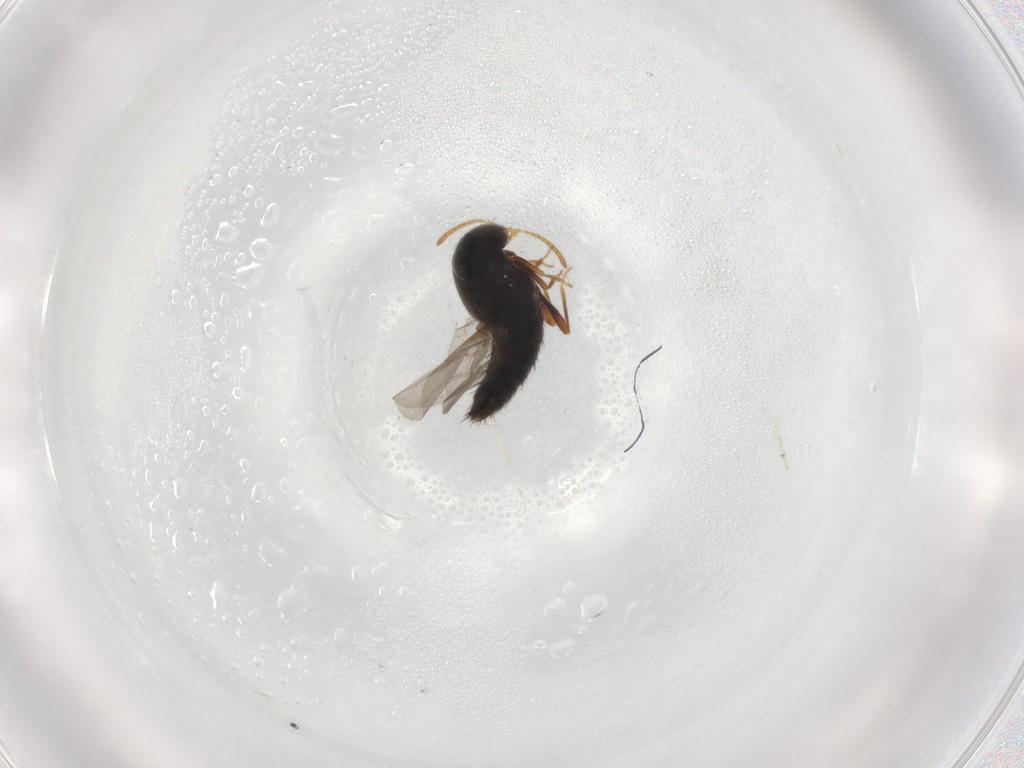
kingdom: Animalia
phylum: Arthropoda
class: Insecta
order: Coleoptera
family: Staphylinidae
